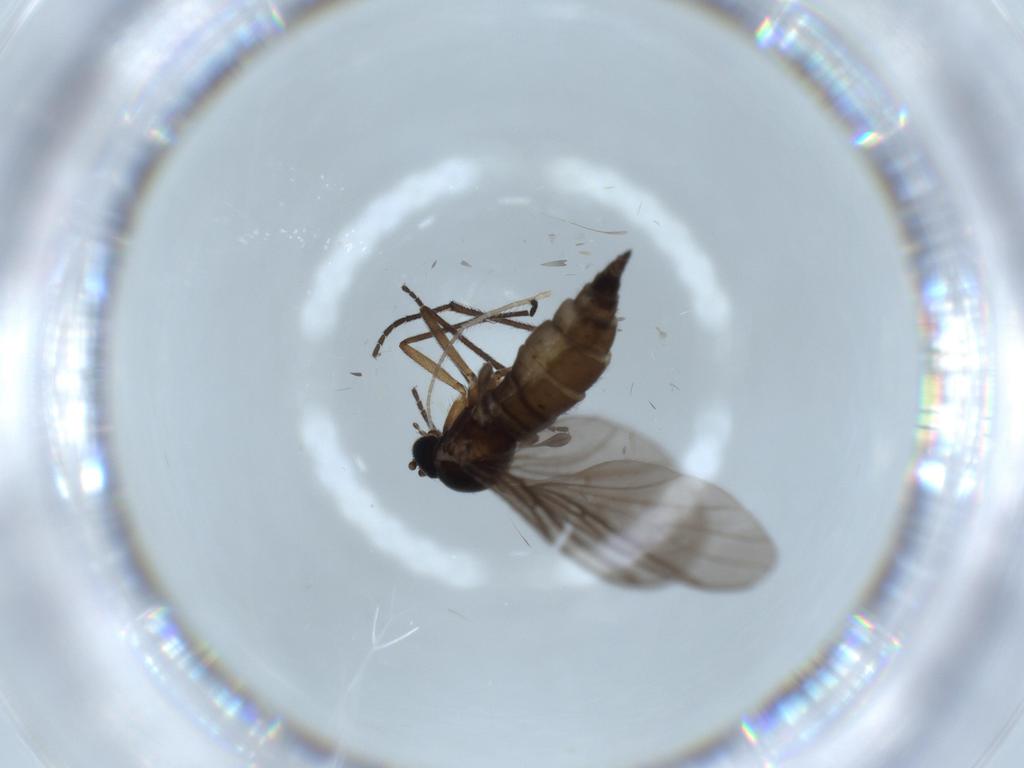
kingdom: Animalia
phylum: Arthropoda
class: Insecta
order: Diptera
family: Sciaridae
